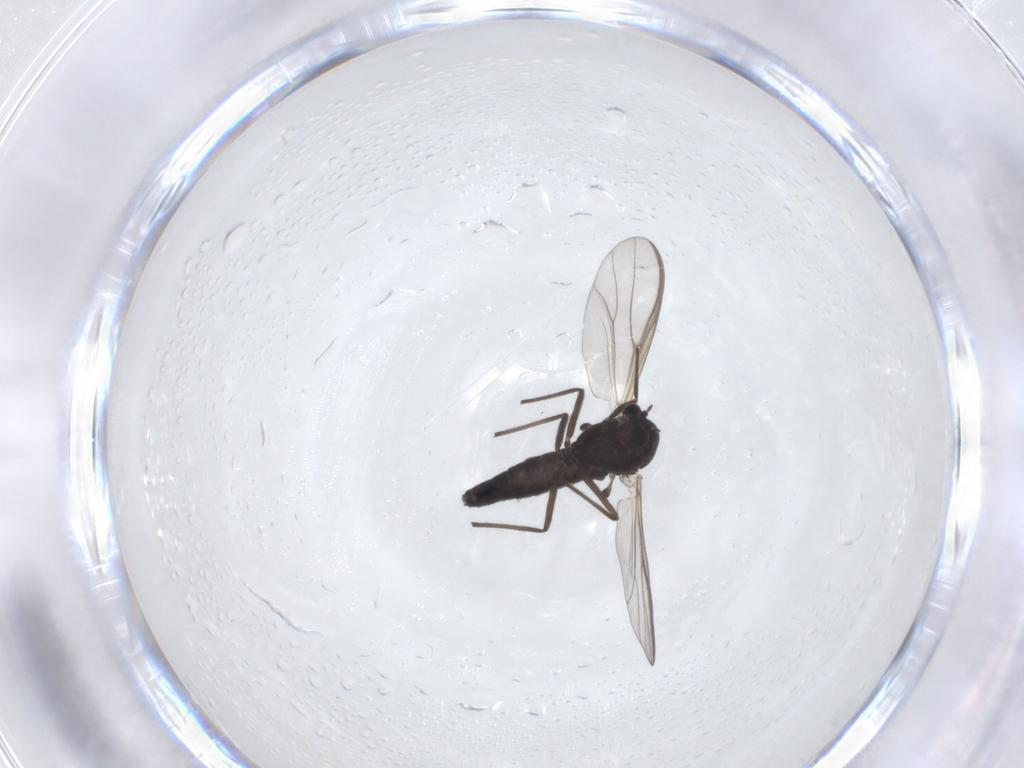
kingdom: Animalia
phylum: Arthropoda
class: Insecta
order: Diptera
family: Chironomidae
